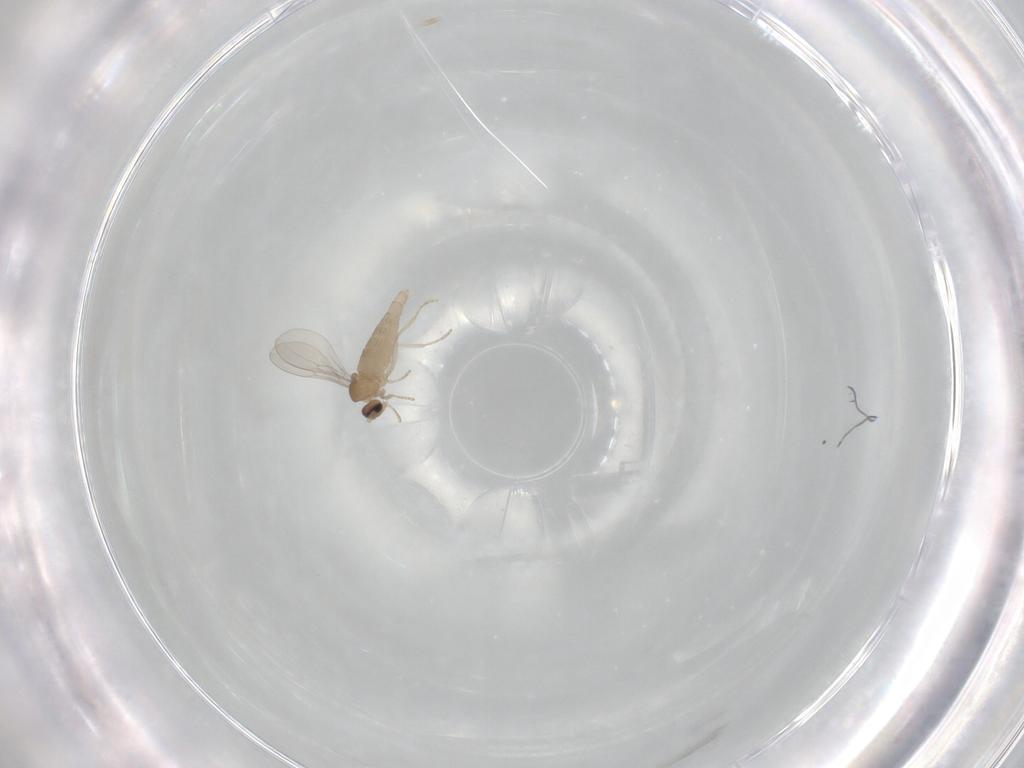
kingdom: Animalia
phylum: Arthropoda
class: Insecta
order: Diptera
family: Cecidomyiidae
